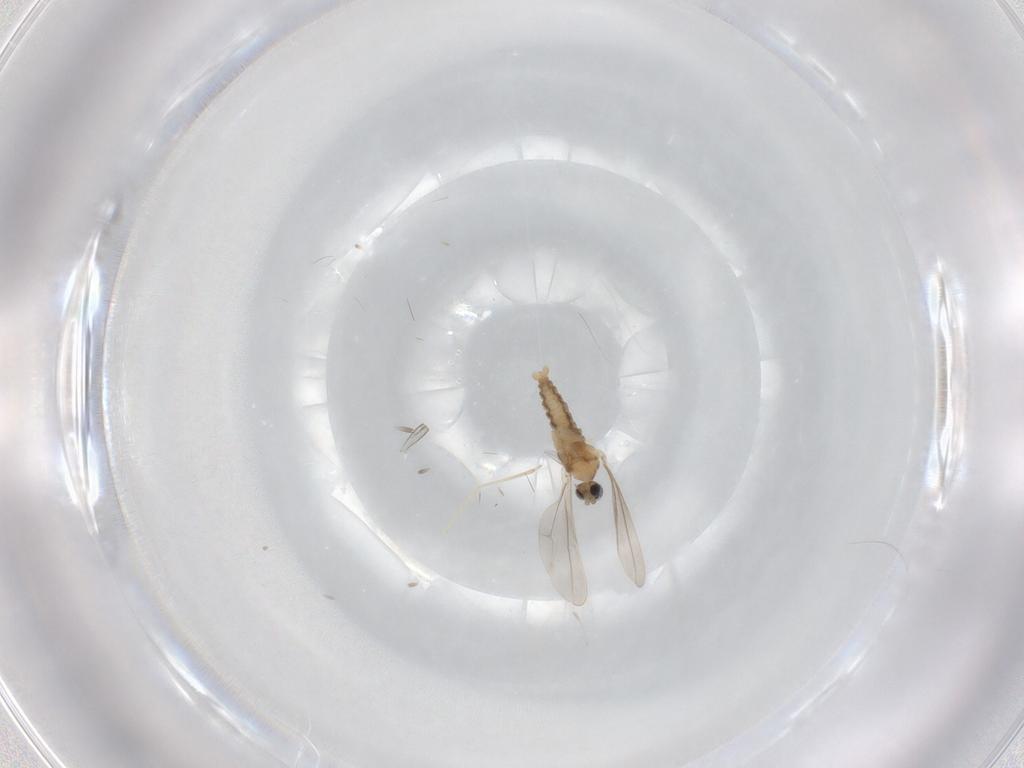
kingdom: Animalia
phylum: Arthropoda
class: Insecta
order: Diptera
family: Cecidomyiidae
